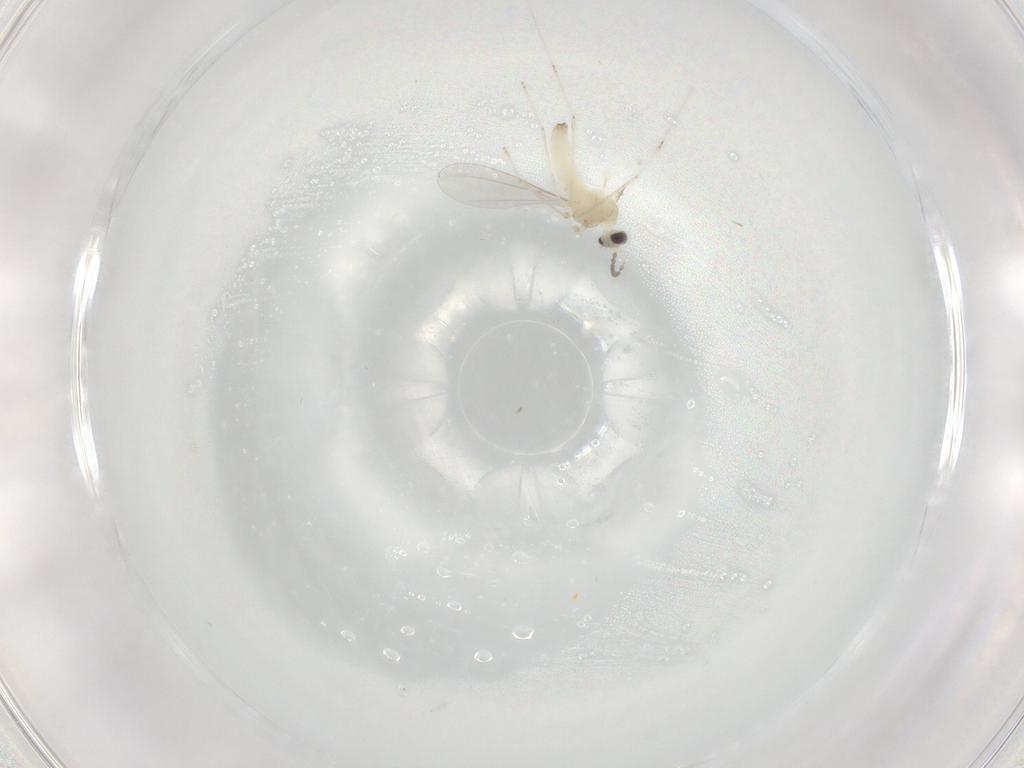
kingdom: Animalia
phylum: Arthropoda
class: Insecta
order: Diptera
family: Cecidomyiidae
